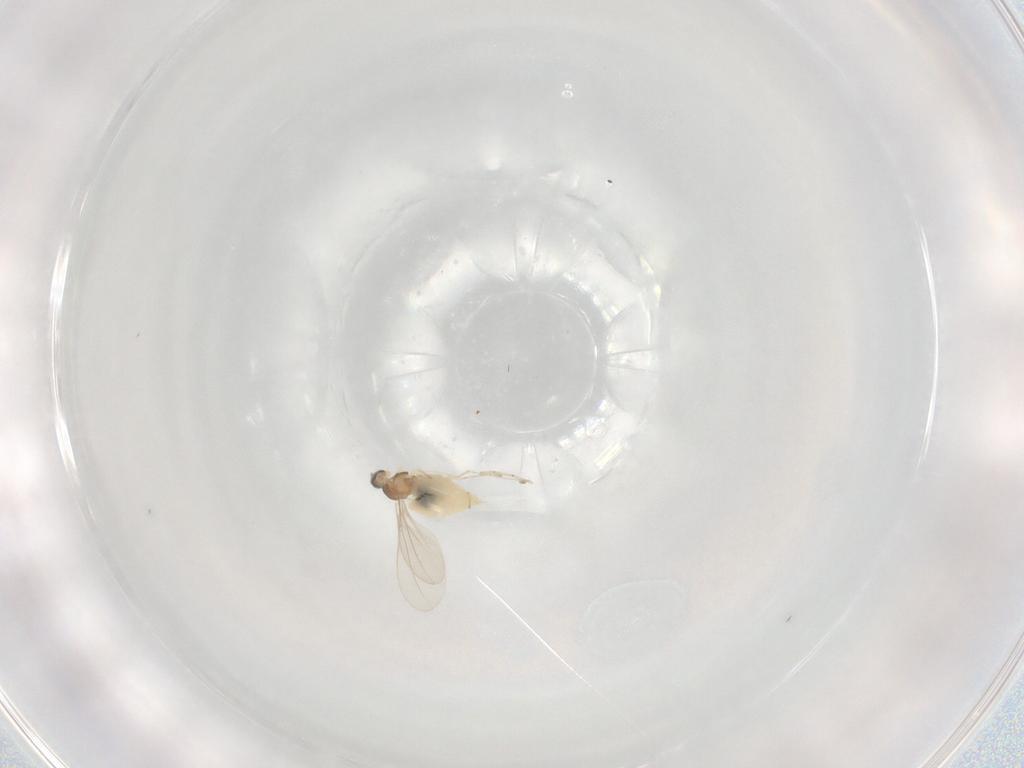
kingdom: Animalia
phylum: Arthropoda
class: Insecta
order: Diptera
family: Cecidomyiidae
